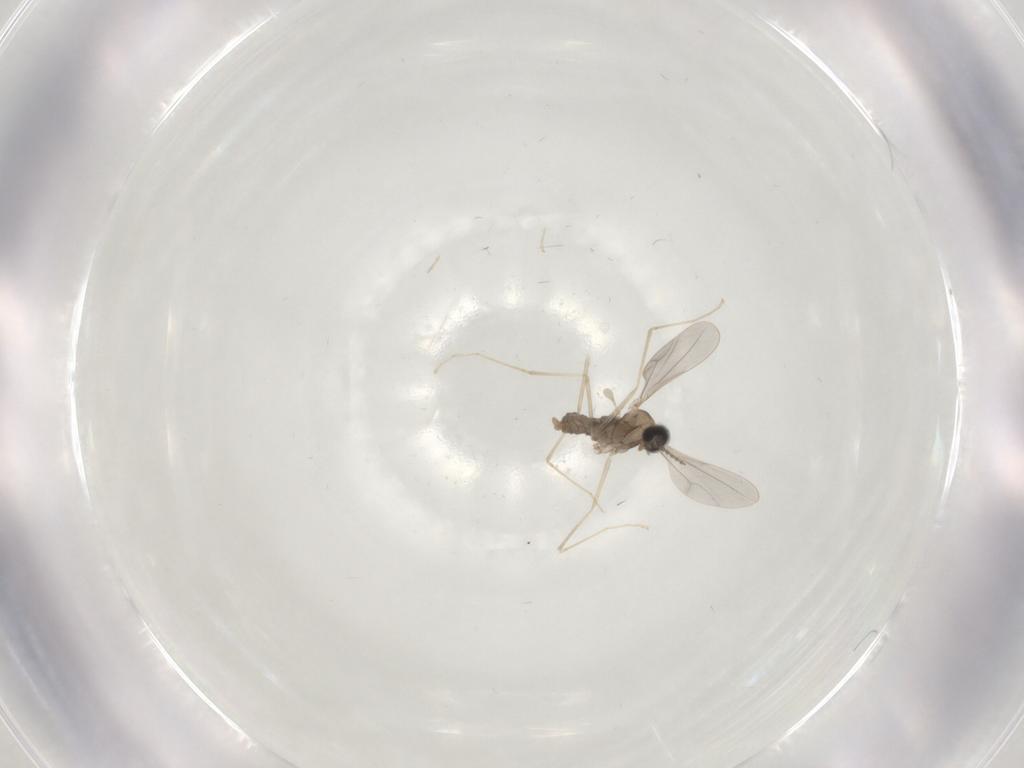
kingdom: Animalia
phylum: Arthropoda
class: Insecta
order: Diptera
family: Cecidomyiidae
